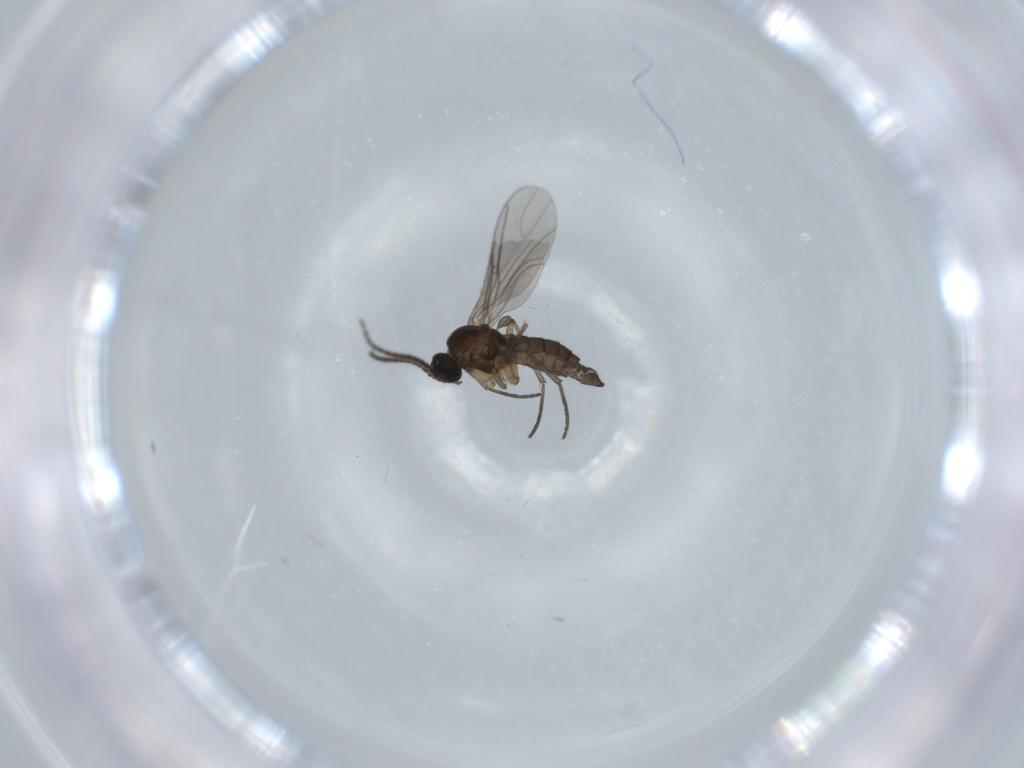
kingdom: Animalia
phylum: Arthropoda
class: Insecta
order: Diptera
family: Sciaridae
